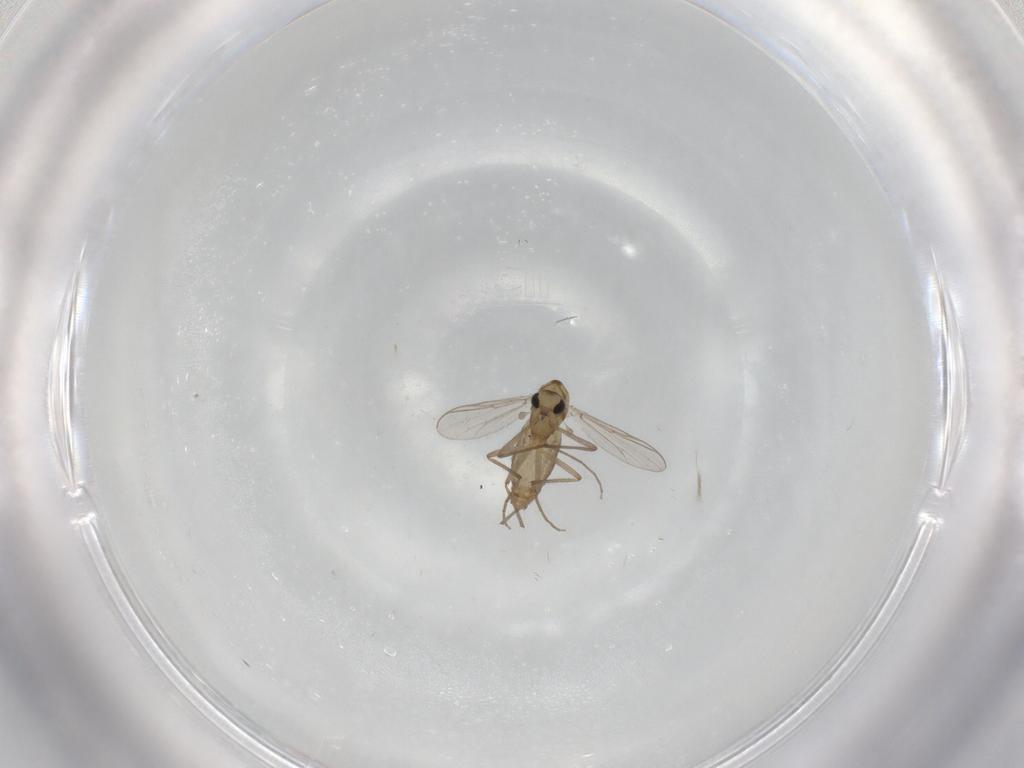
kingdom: Animalia
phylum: Arthropoda
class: Insecta
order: Diptera
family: Chironomidae
